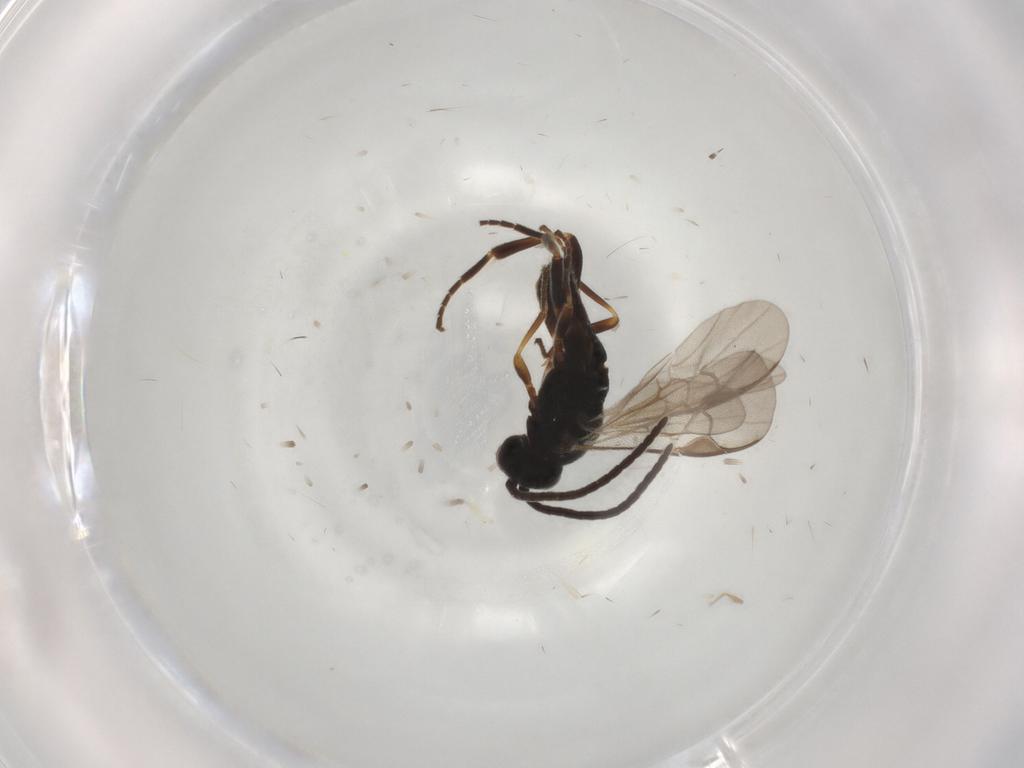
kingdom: Animalia
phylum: Arthropoda
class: Insecta
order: Hymenoptera
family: Braconidae
